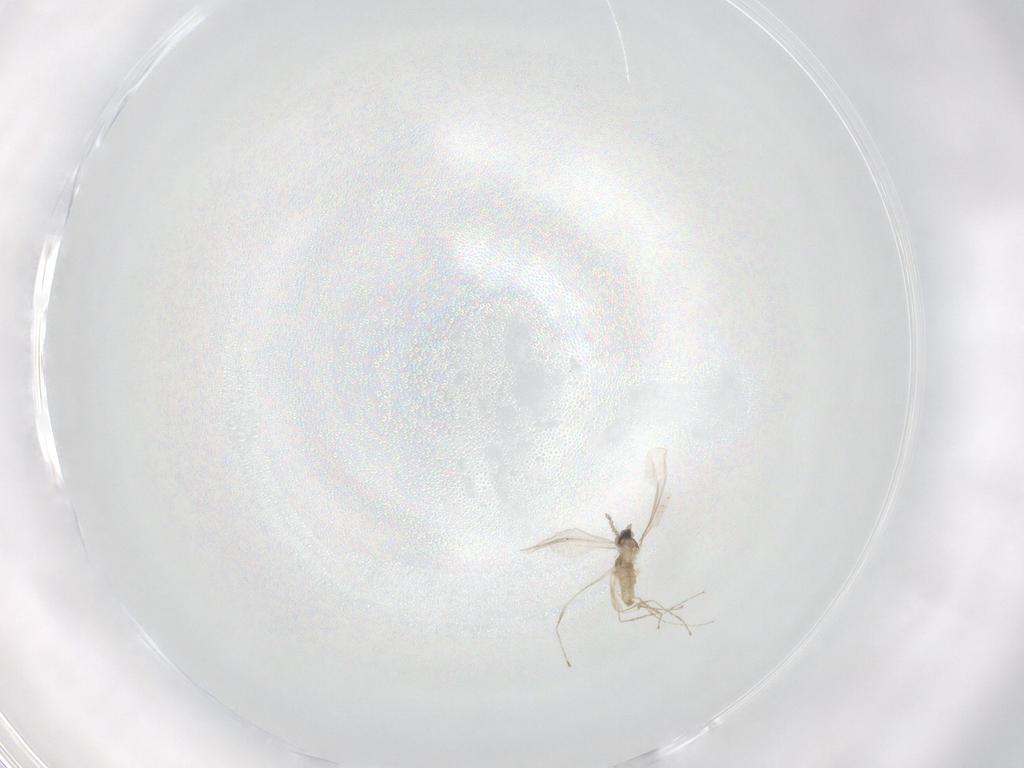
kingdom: Animalia
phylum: Arthropoda
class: Insecta
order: Diptera
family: Cecidomyiidae
